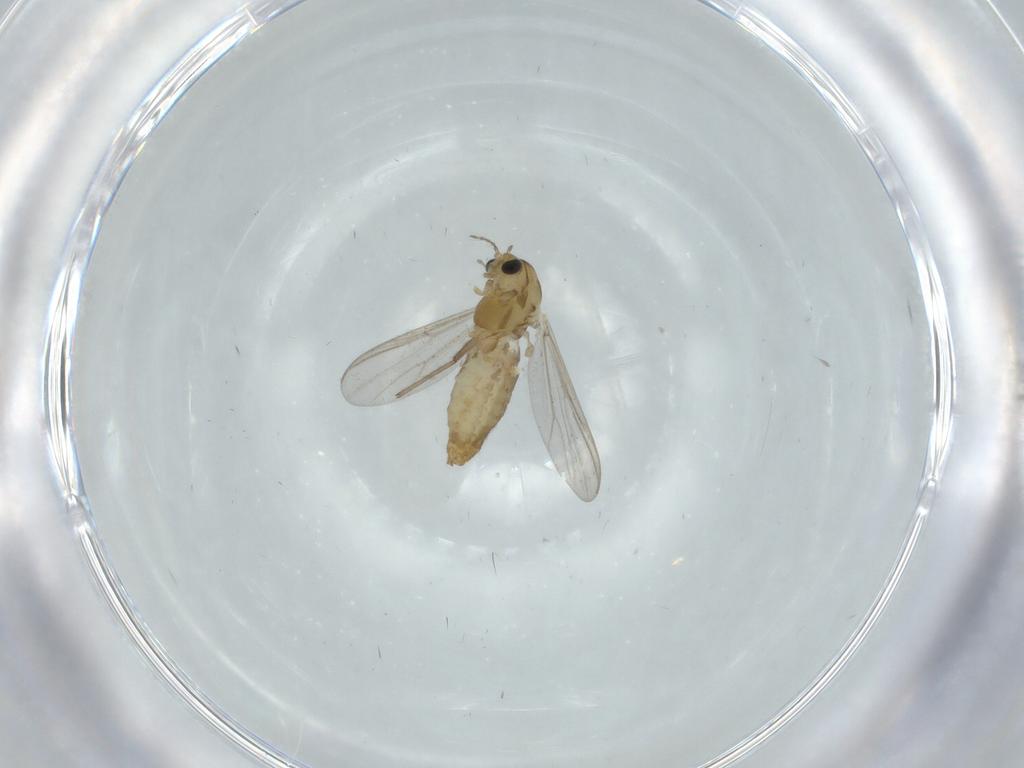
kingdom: Animalia
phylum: Arthropoda
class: Insecta
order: Diptera
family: Chironomidae
